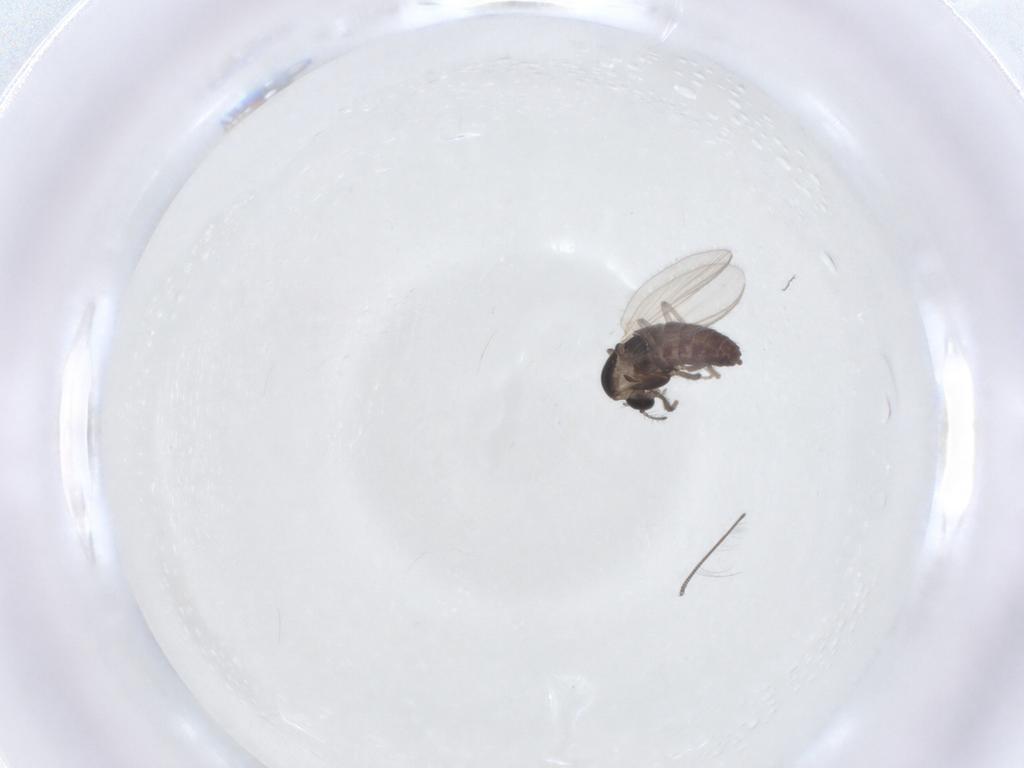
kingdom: Animalia
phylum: Arthropoda
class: Insecta
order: Diptera
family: Chironomidae
